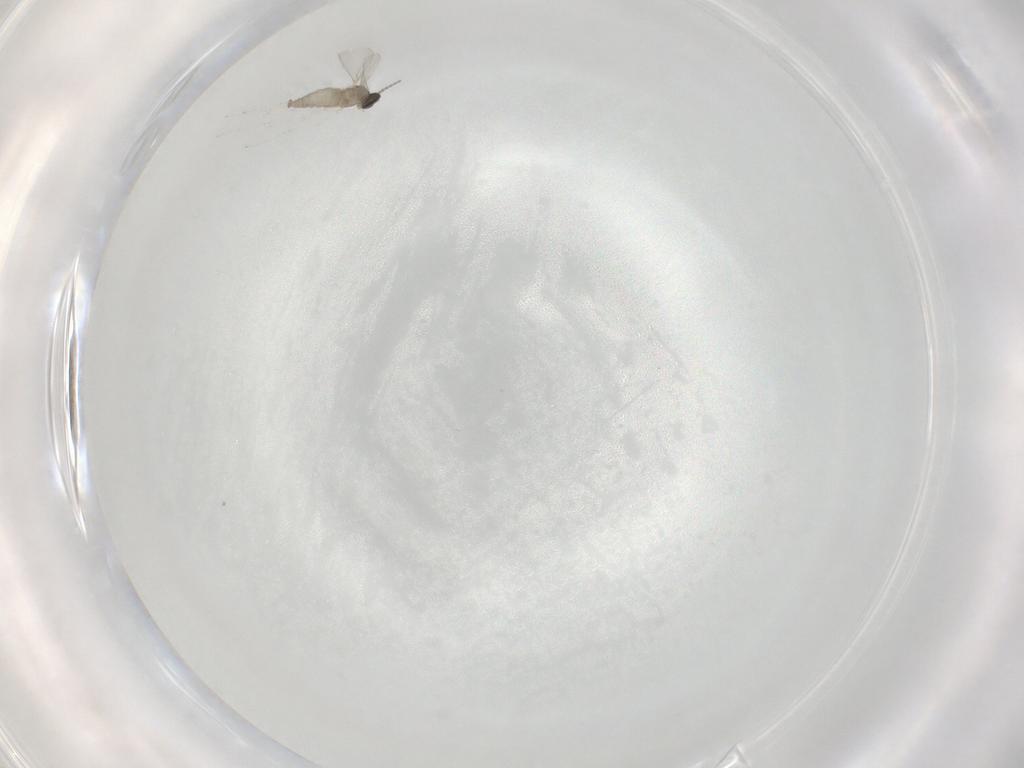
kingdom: Animalia
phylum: Arthropoda
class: Insecta
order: Diptera
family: Cecidomyiidae
